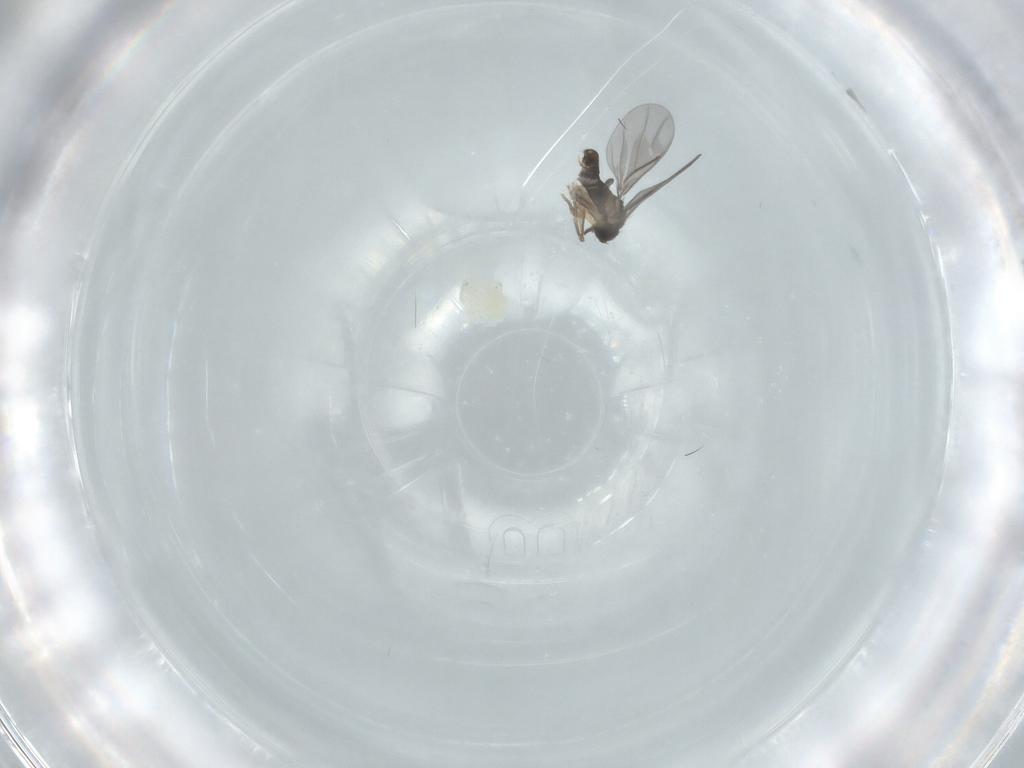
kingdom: Animalia
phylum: Arthropoda
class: Insecta
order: Diptera
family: Phoridae
